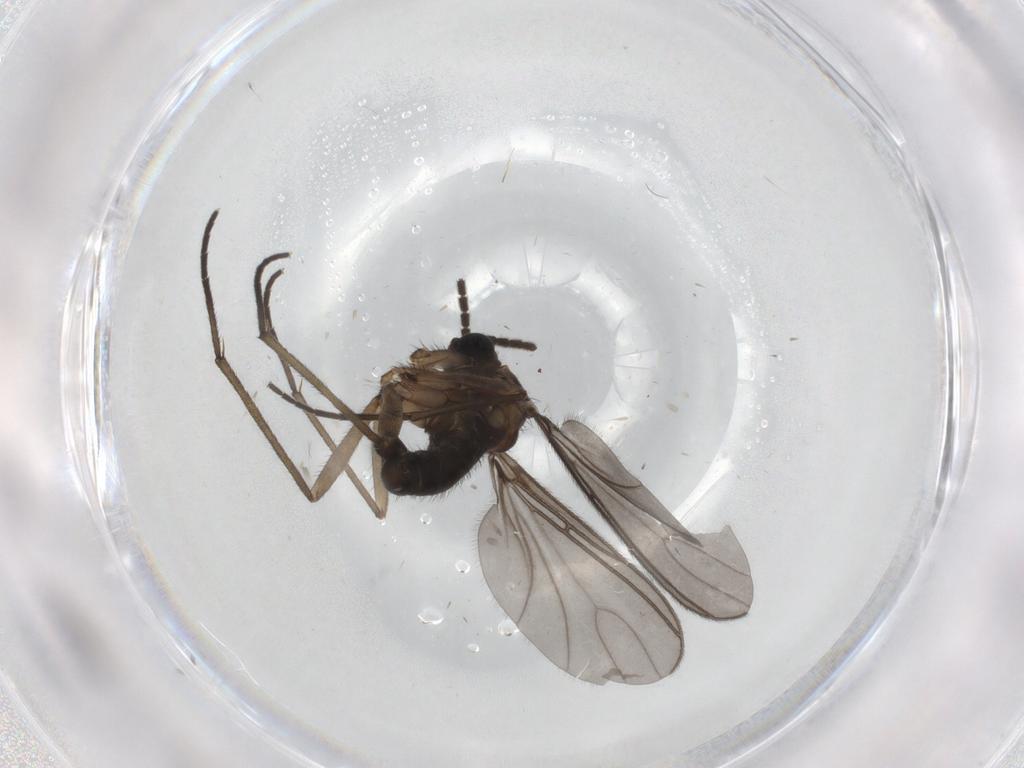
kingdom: Animalia
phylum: Arthropoda
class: Insecta
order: Diptera
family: Sciaridae
